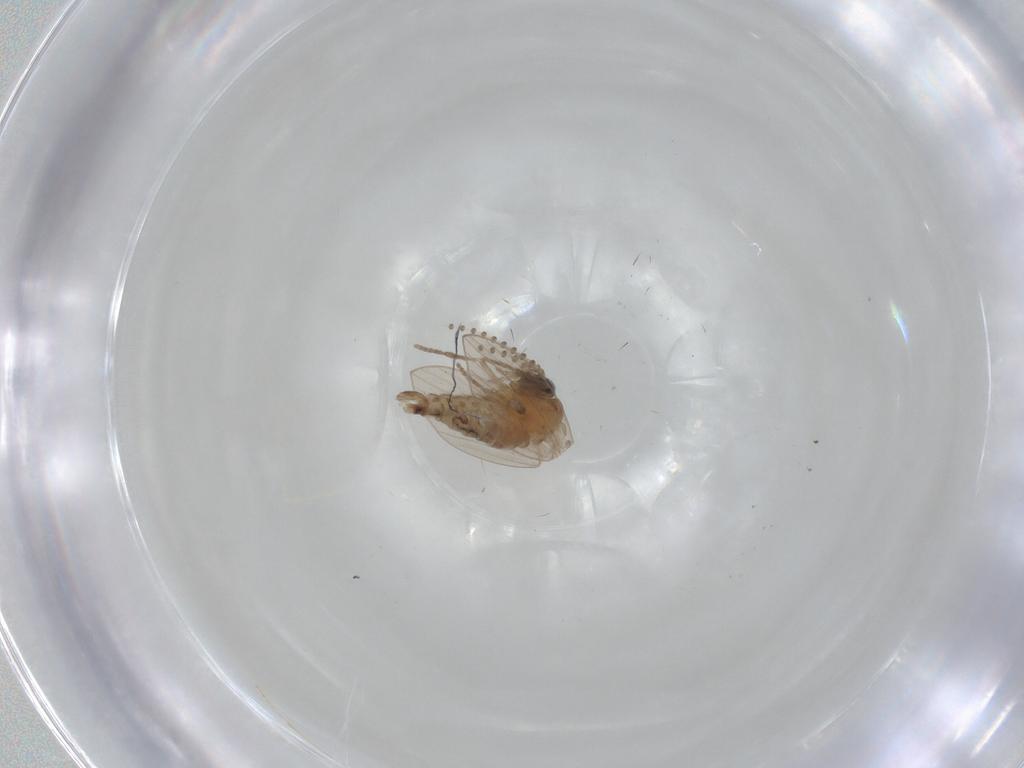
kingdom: Animalia
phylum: Arthropoda
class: Insecta
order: Diptera
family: Psychodidae
